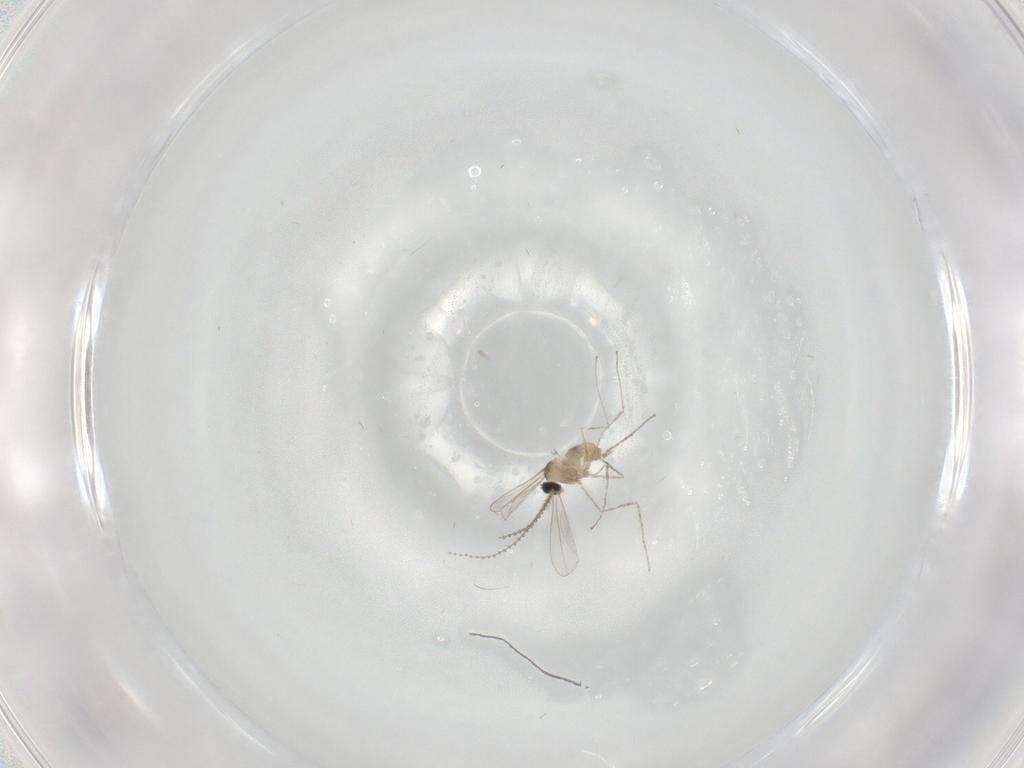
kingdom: Animalia
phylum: Arthropoda
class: Insecta
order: Diptera
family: Cecidomyiidae
